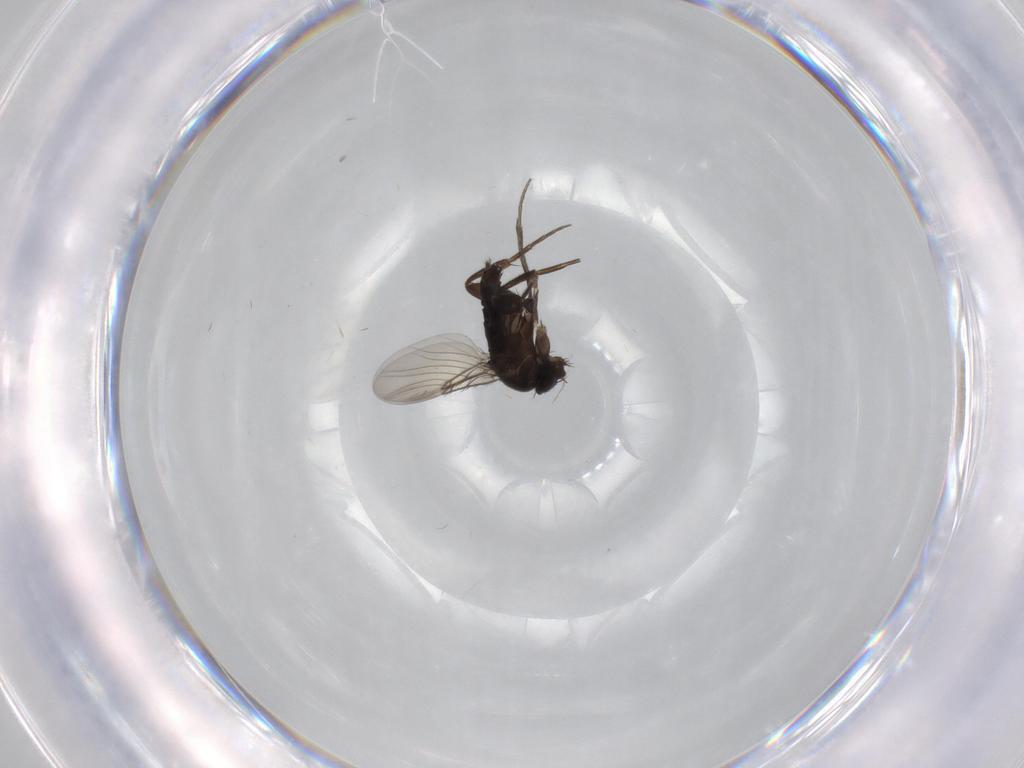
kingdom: Animalia
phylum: Arthropoda
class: Insecta
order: Diptera
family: Phoridae
